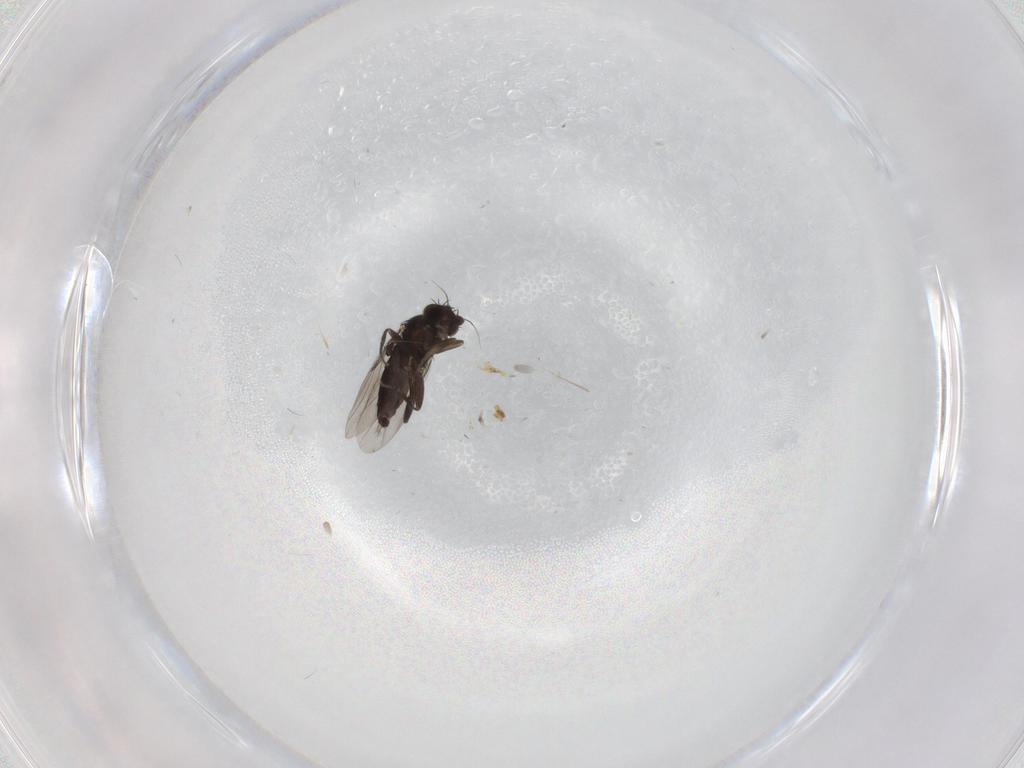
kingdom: Animalia
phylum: Arthropoda
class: Insecta
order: Diptera
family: Phoridae
